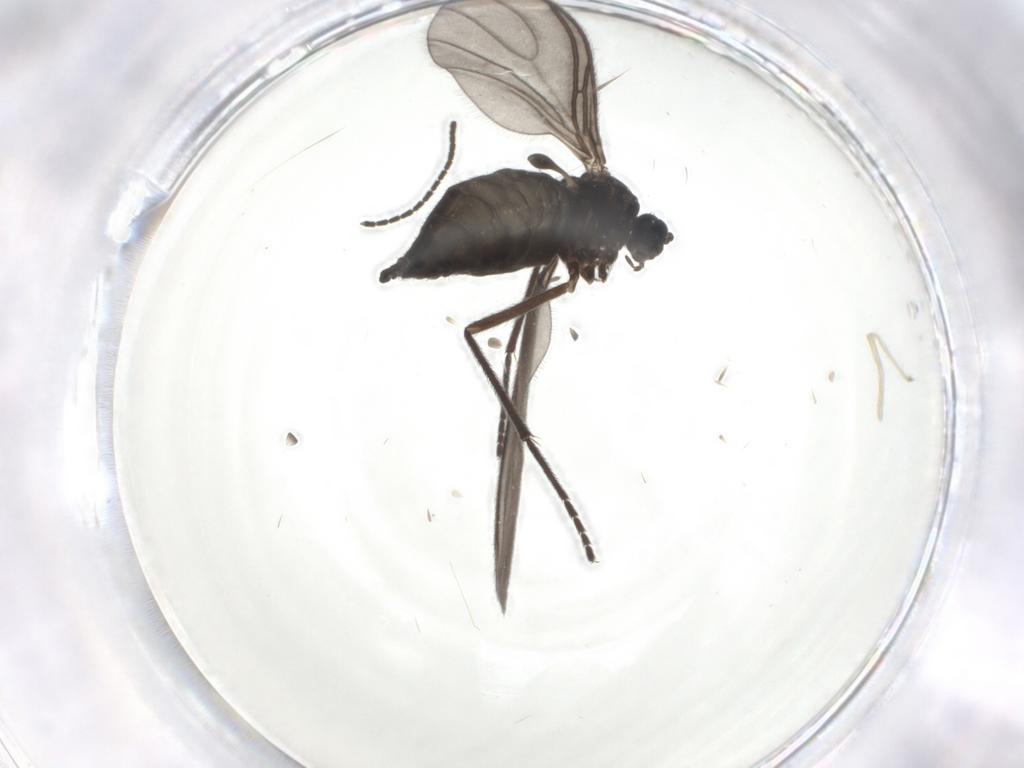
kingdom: Animalia
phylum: Arthropoda
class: Insecta
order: Diptera
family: Sciaridae
